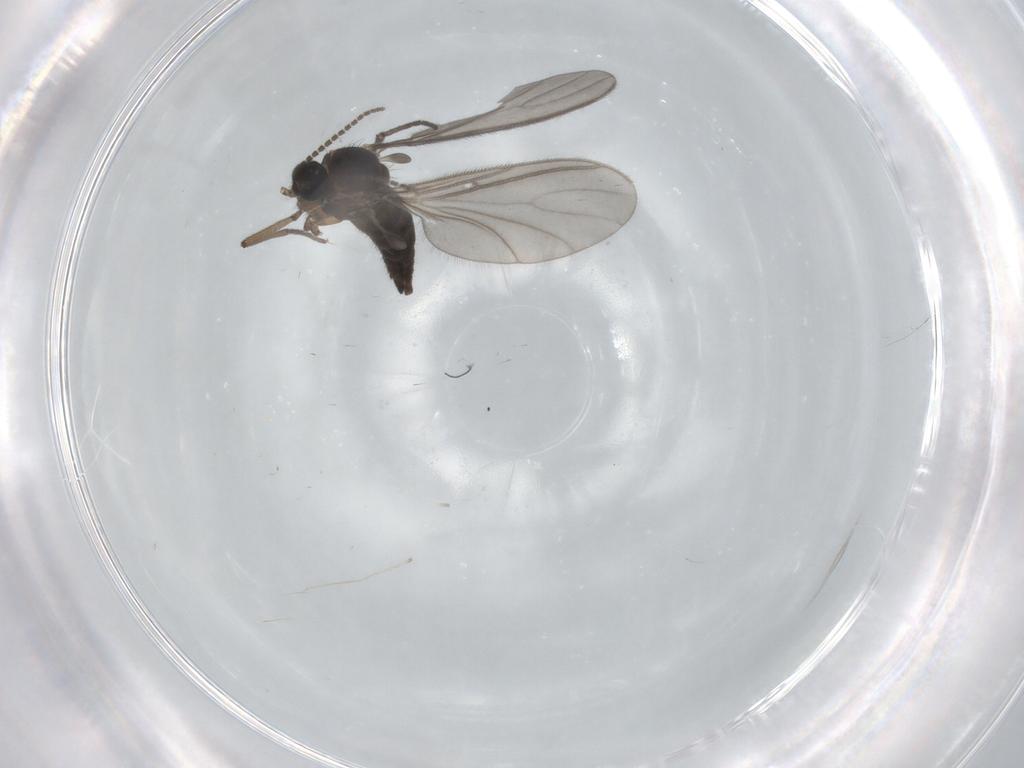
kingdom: Animalia
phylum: Arthropoda
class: Insecta
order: Diptera
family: Sciaridae
